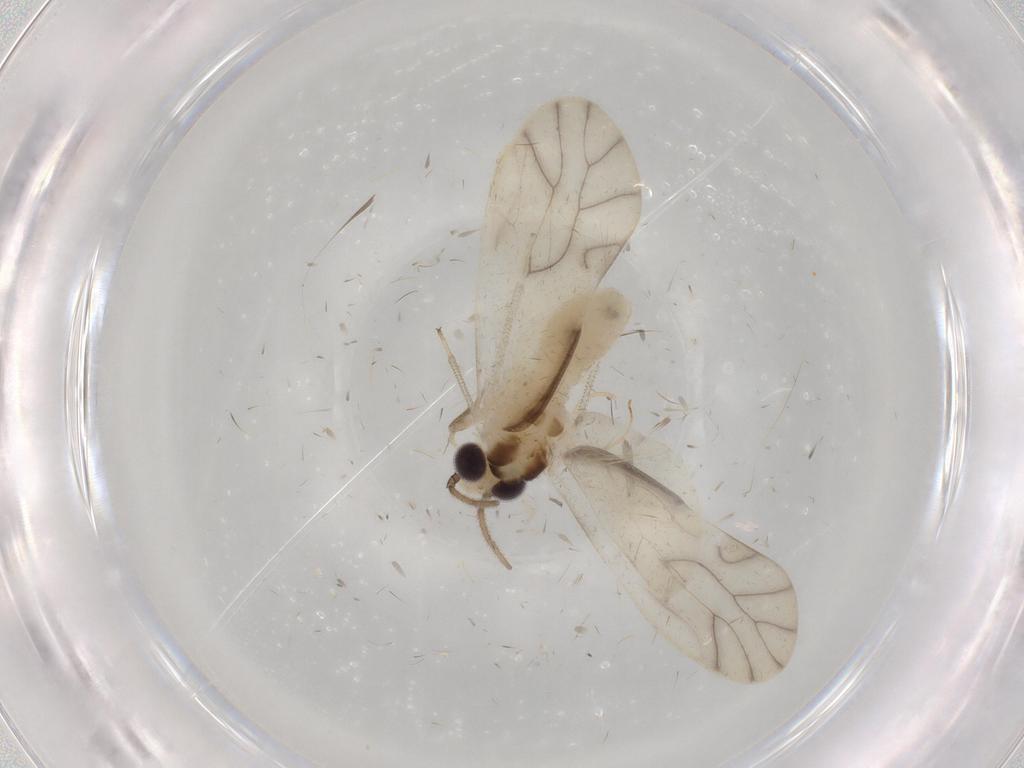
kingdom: Animalia
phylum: Arthropoda
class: Insecta
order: Psocodea
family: Caeciliusidae
